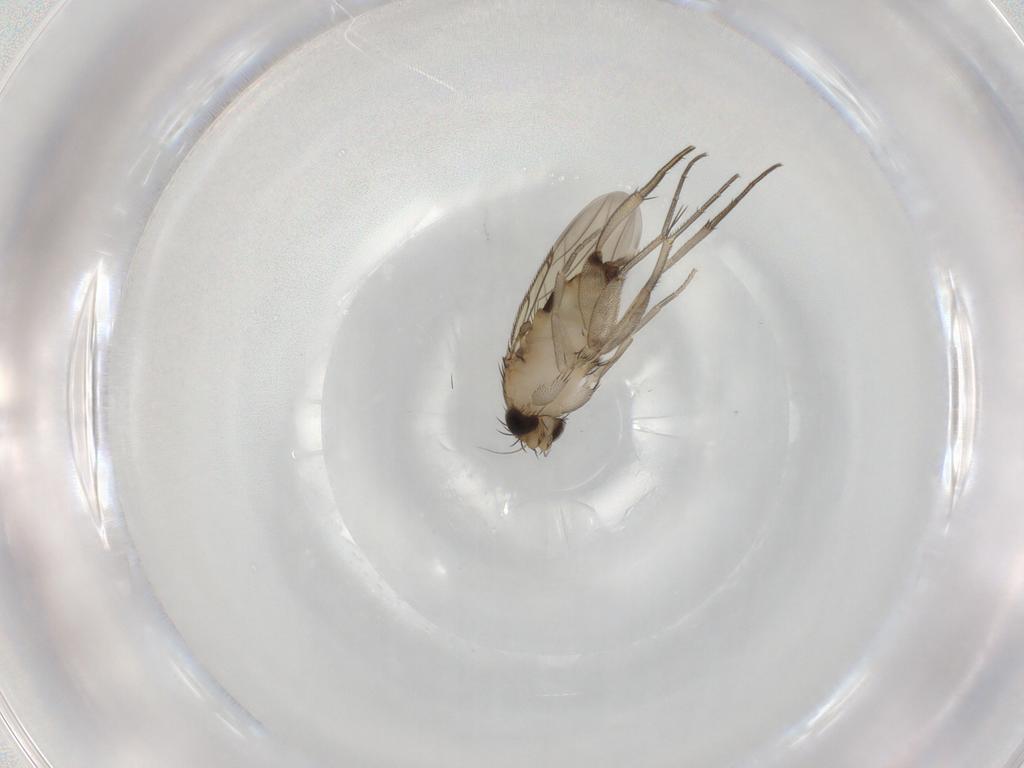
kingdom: Animalia
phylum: Arthropoda
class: Insecta
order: Diptera
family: Phoridae
